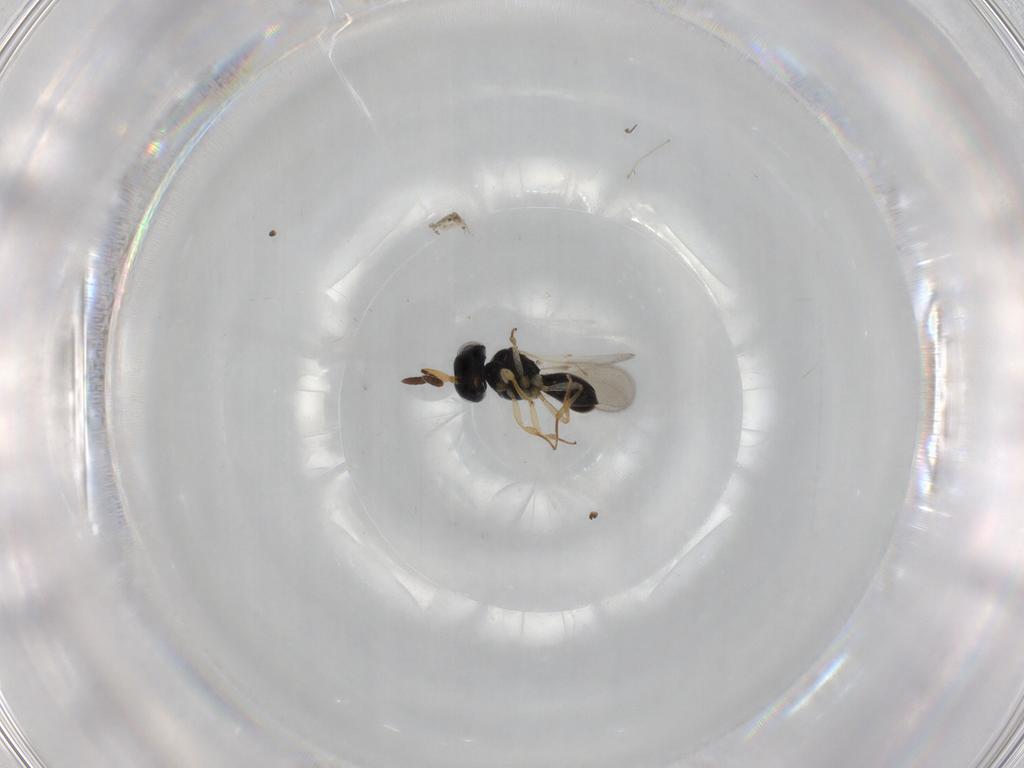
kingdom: Animalia
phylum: Arthropoda
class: Insecta
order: Hymenoptera
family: Scelionidae
